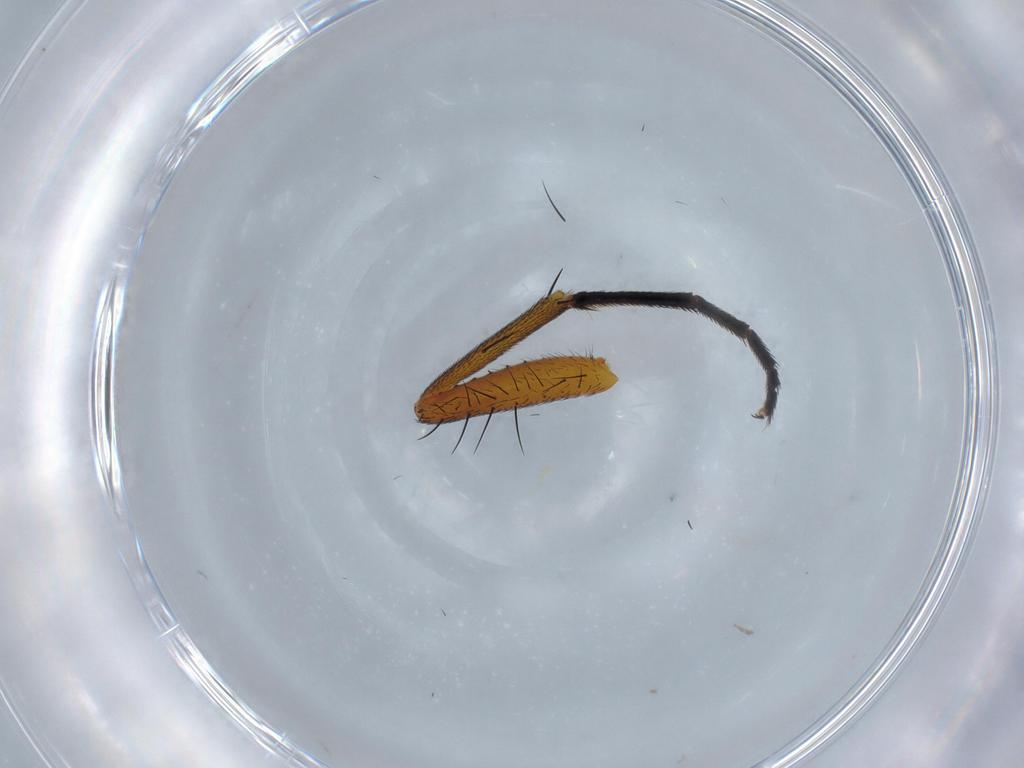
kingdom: Animalia
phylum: Arthropoda
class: Insecta
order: Diptera
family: Muscidae
